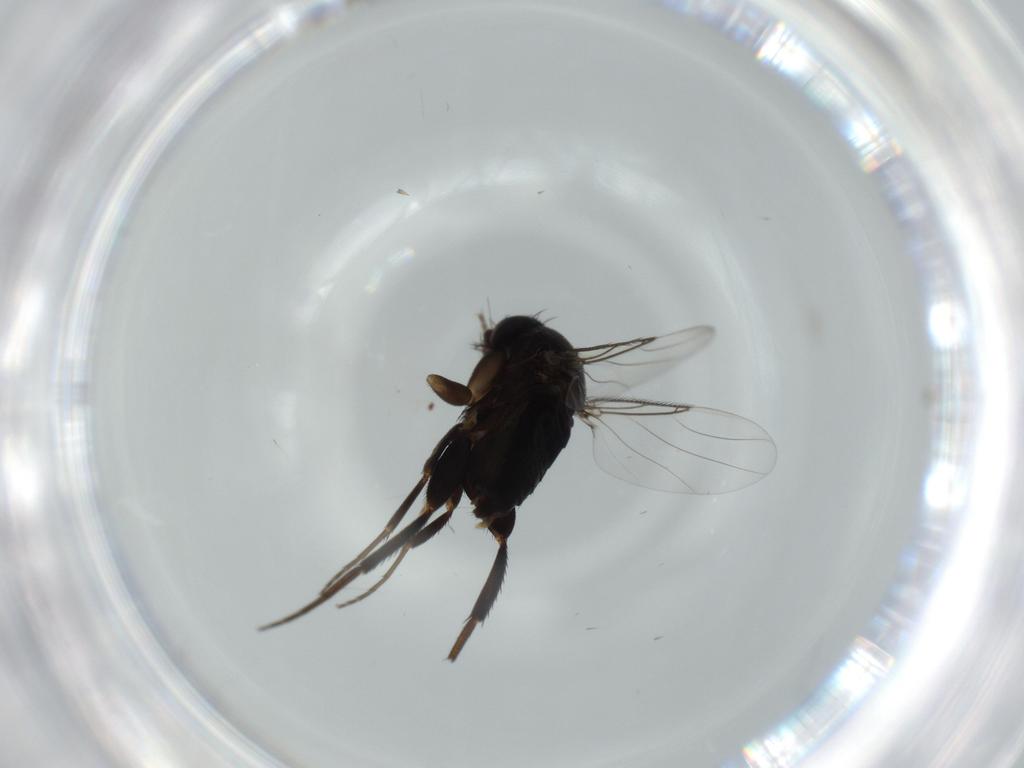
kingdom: Animalia
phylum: Arthropoda
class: Insecta
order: Diptera
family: Phoridae
